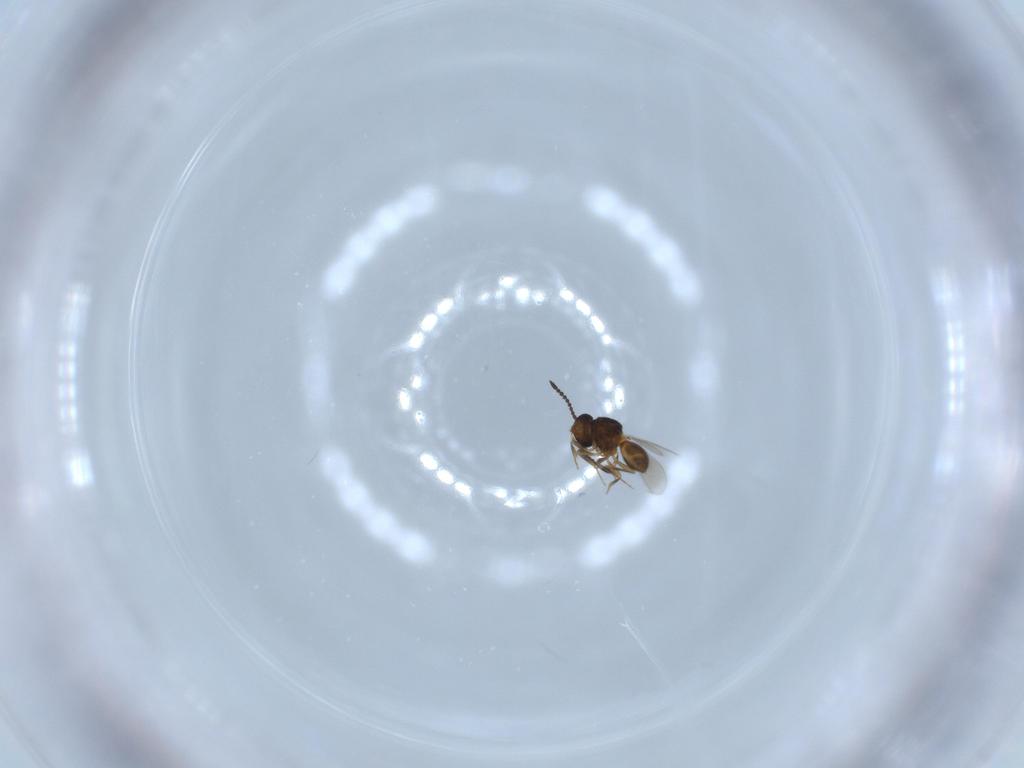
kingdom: Animalia
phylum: Arthropoda
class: Insecta
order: Hymenoptera
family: Scelionidae
